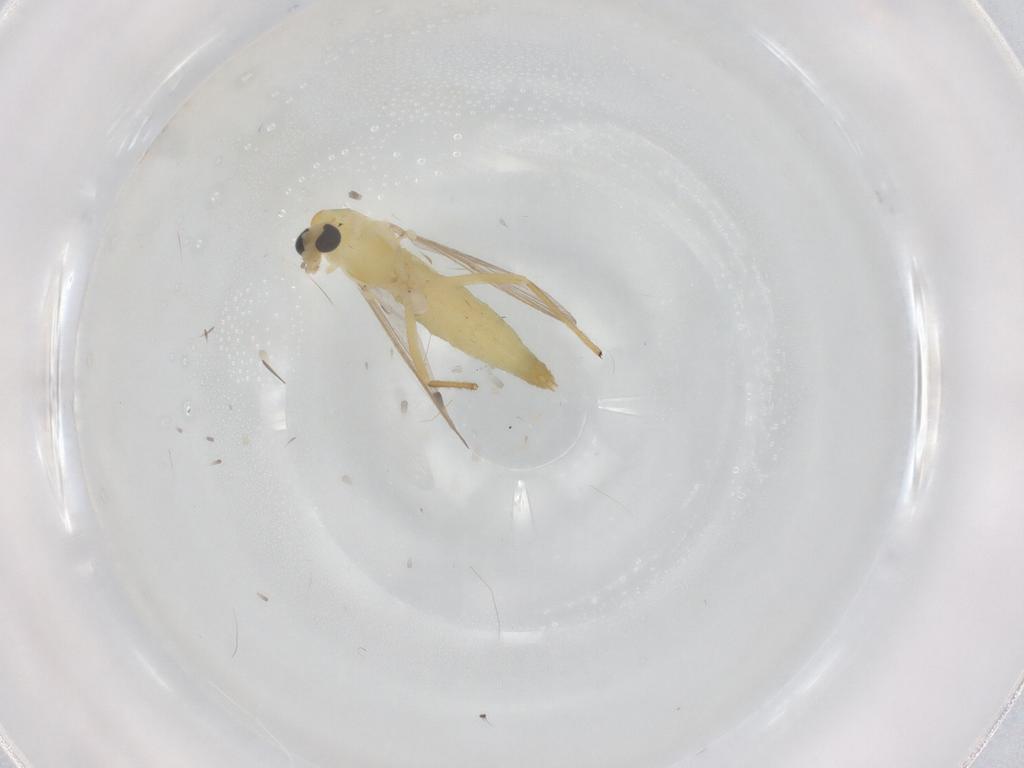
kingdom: Animalia
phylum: Arthropoda
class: Insecta
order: Diptera
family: Chironomidae
